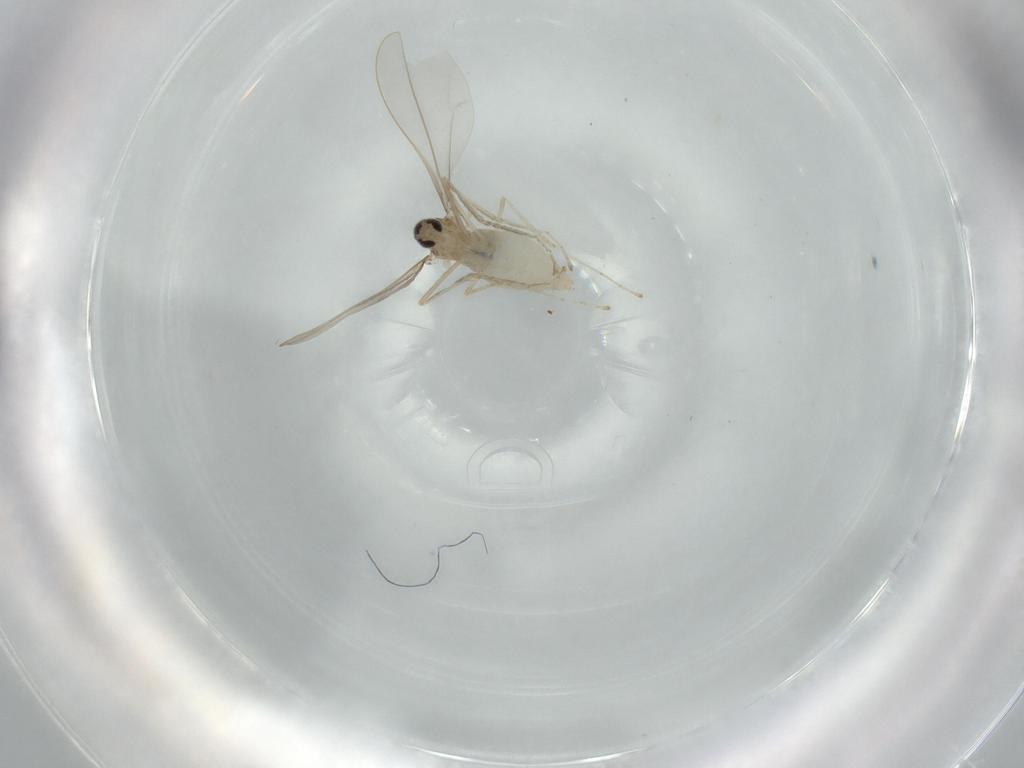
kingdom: Animalia
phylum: Arthropoda
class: Insecta
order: Diptera
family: Cecidomyiidae
